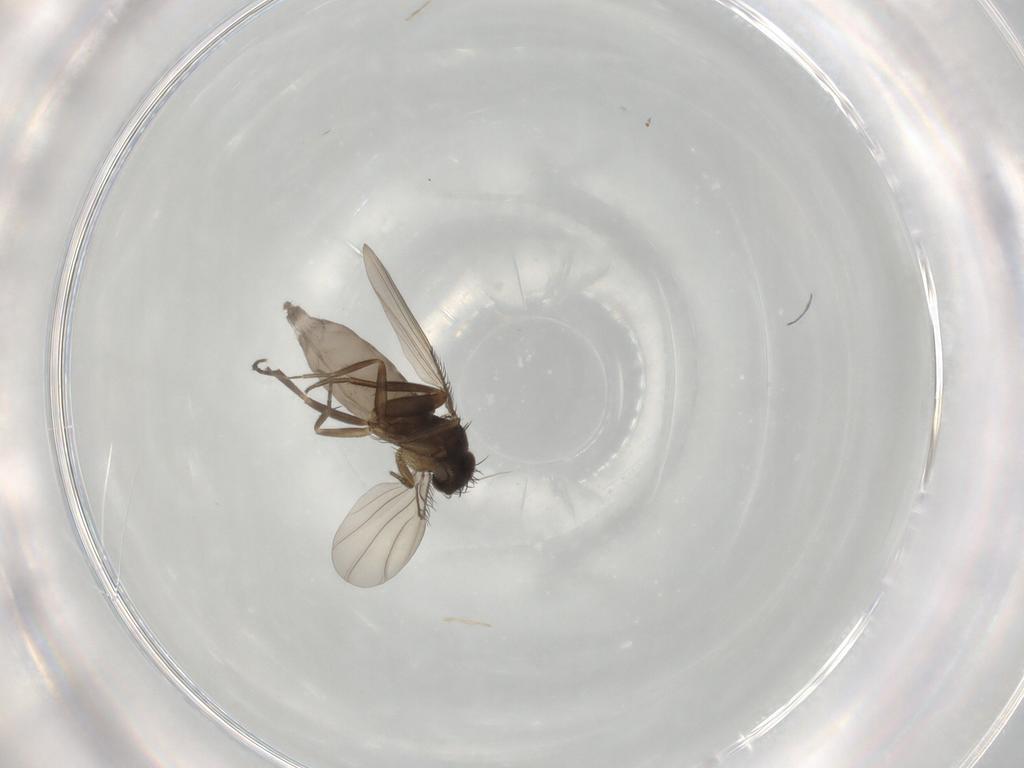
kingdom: Animalia
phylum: Arthropoda
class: Insecta
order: Diptera
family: Phoridae
